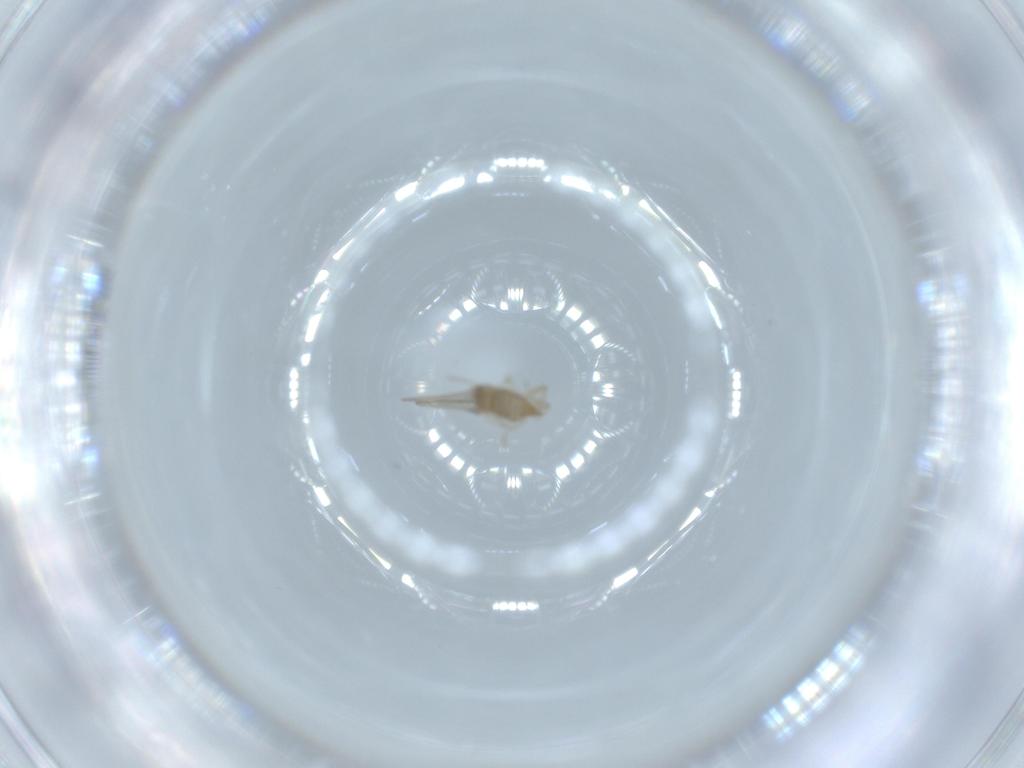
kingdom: Animalia
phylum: Arthropoda
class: Insecta
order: Diptera
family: Cecidomyiidae
